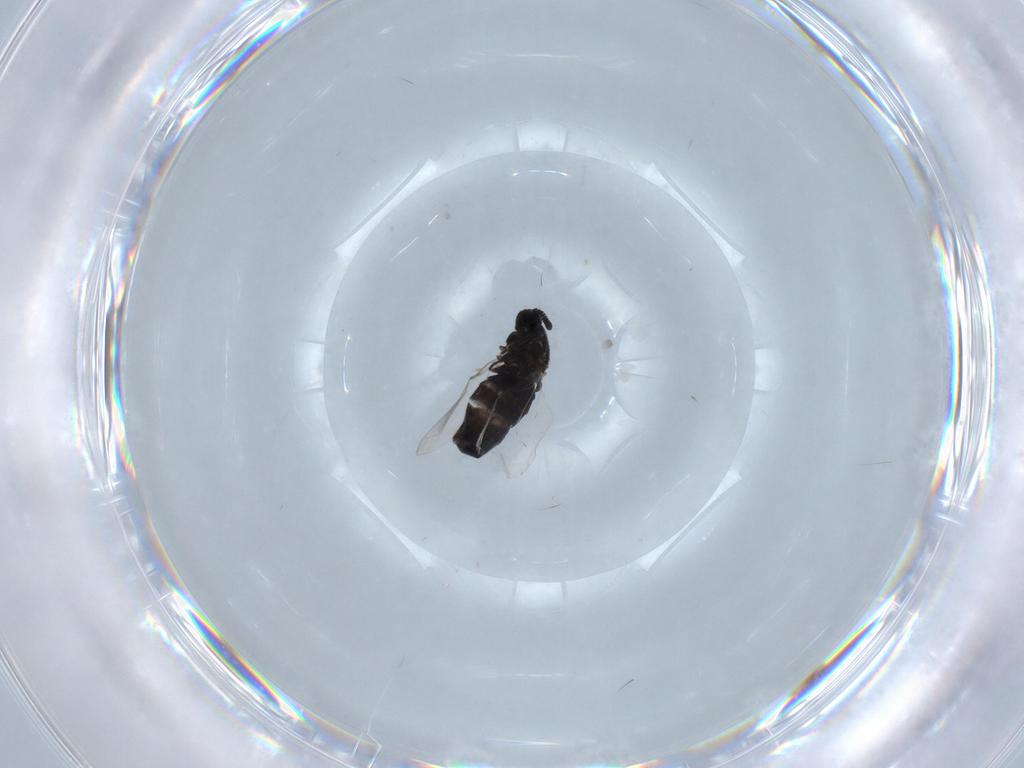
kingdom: Animalia
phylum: Arthropoda
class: Insecta
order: Diptera
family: Scatopsidae
